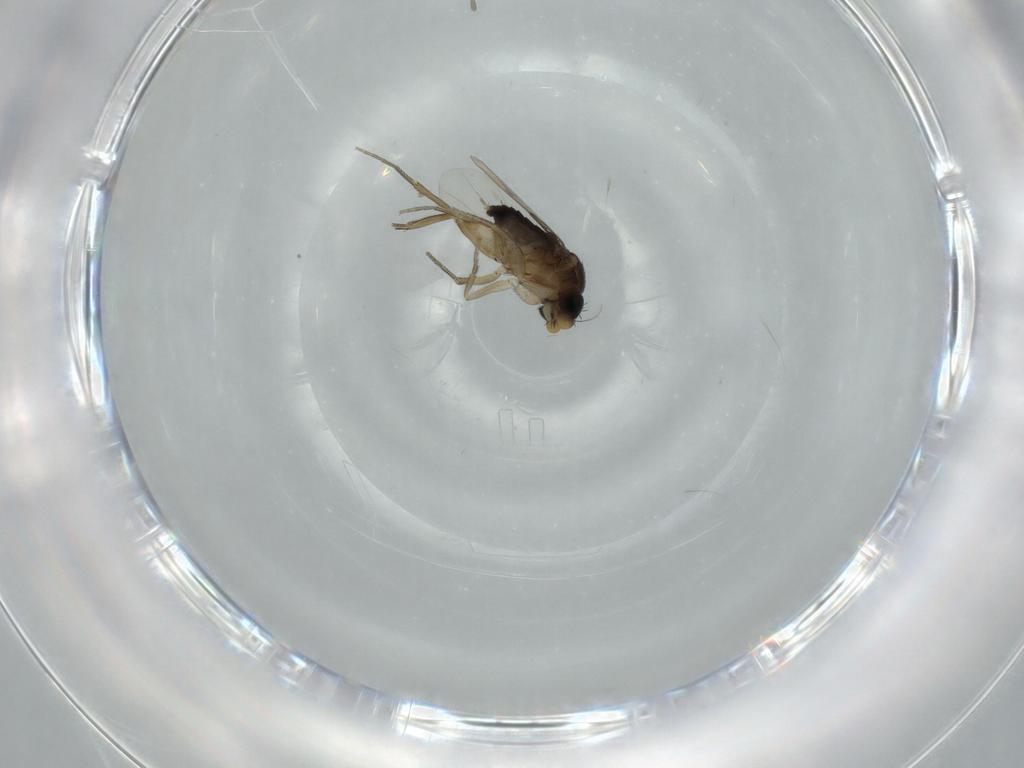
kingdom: Animalia
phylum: Arthropoda
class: Insecta
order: Diptera
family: Phoridae
